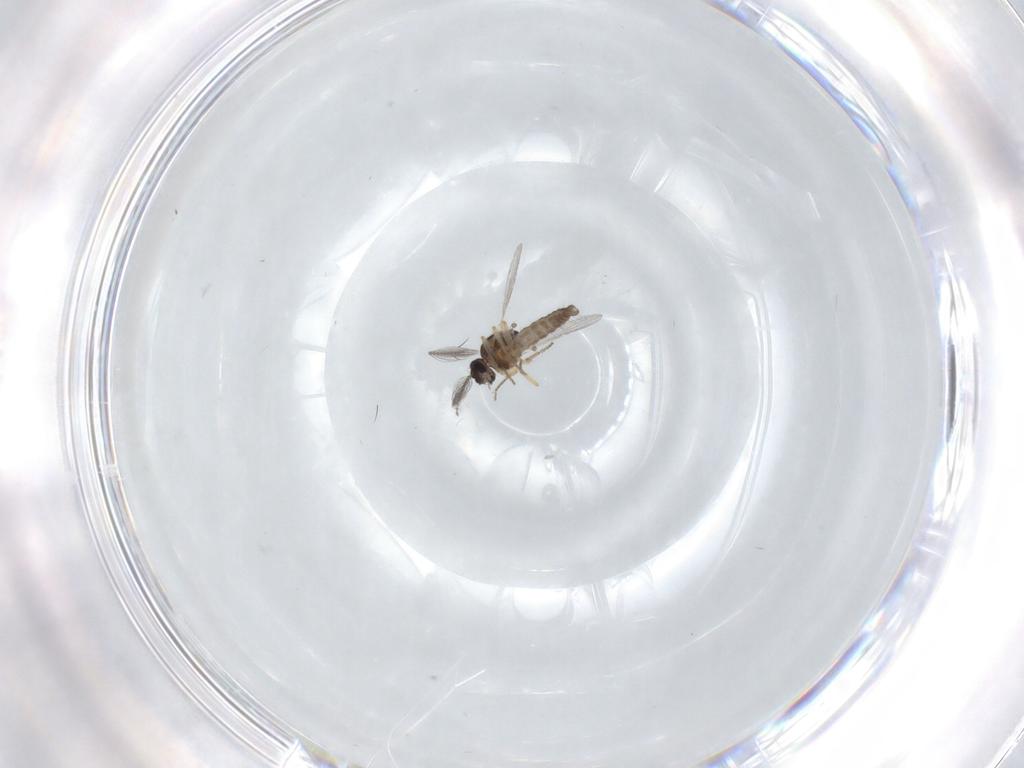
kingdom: Animalia
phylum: Arthropoda
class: Insecta
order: Diptera
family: Ceratopogonidae
